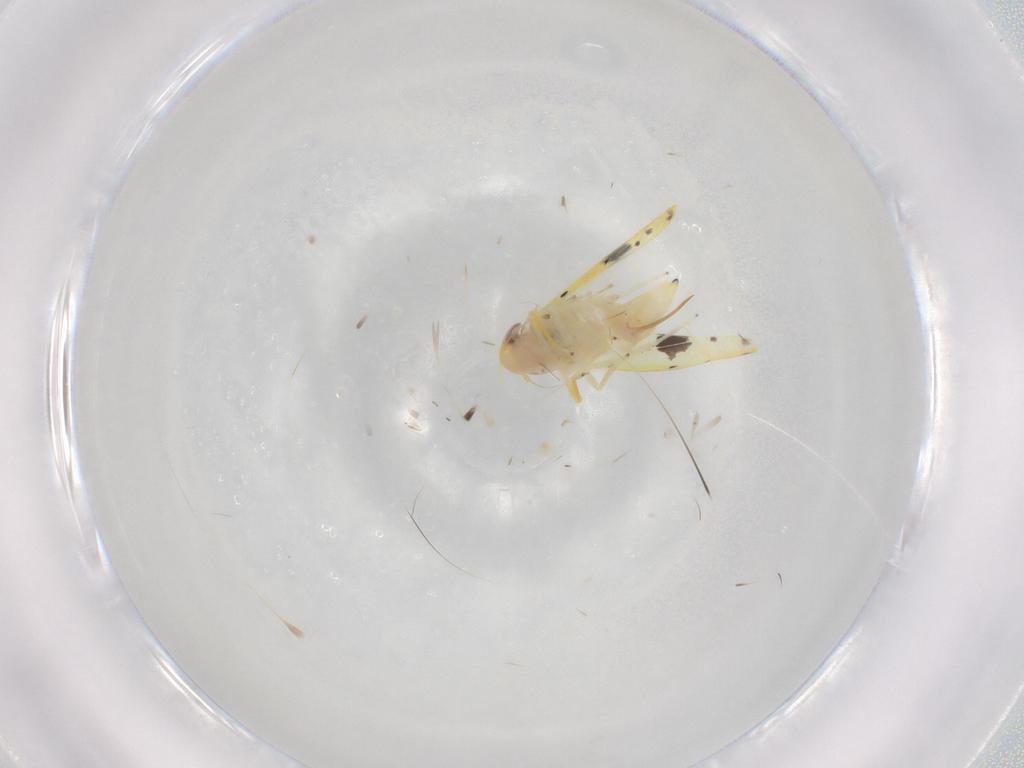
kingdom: Animalia
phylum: Arthropoda
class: Insecta
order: Hemiptera
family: Cicadellidae
